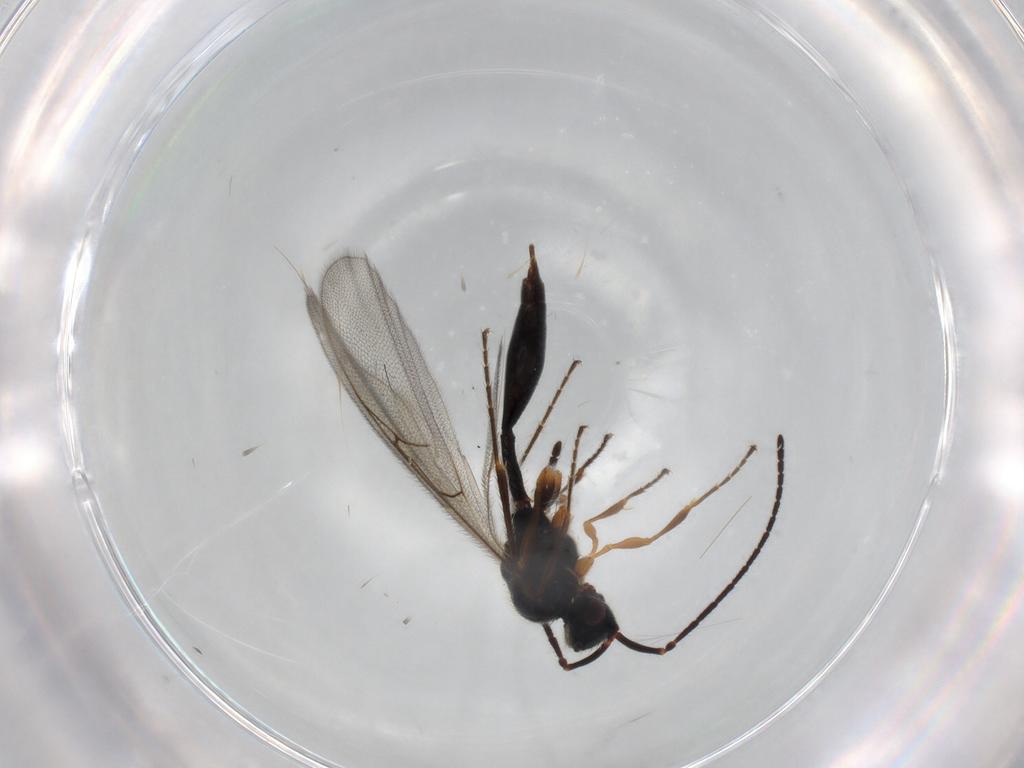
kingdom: Animalia
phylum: Arthropoda
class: Insecta
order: Hymenoptera
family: Diapriidae
